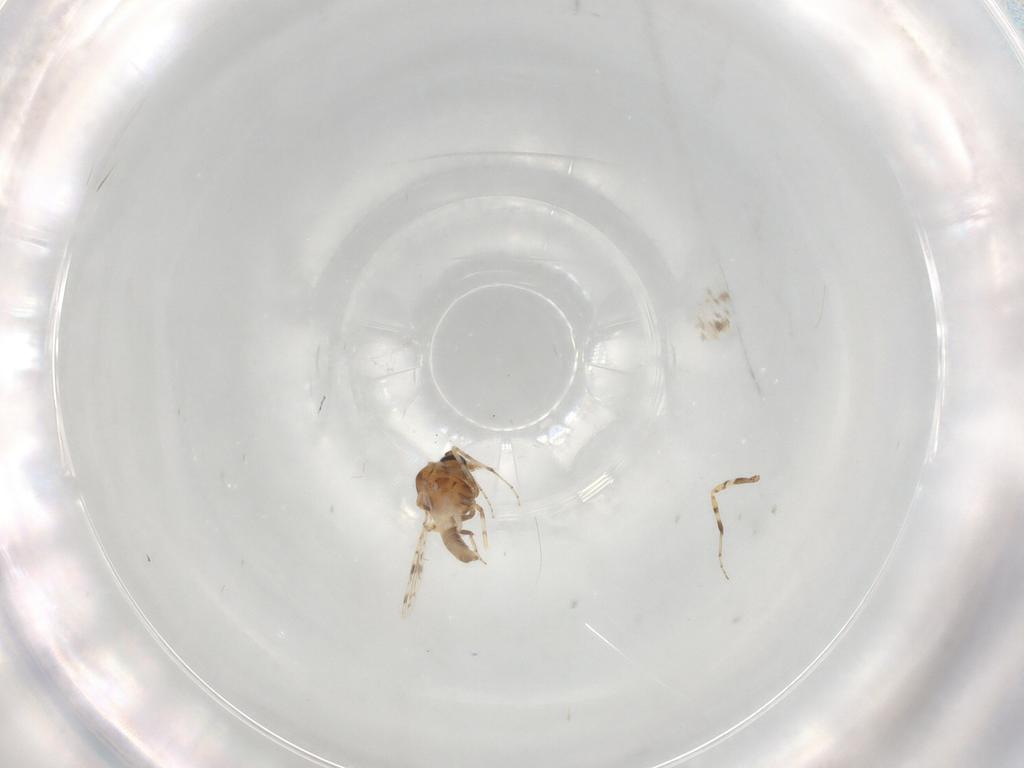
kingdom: Animalia
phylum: Arthropoda
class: Insecta
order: Diptera
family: Ceratopogonidae
